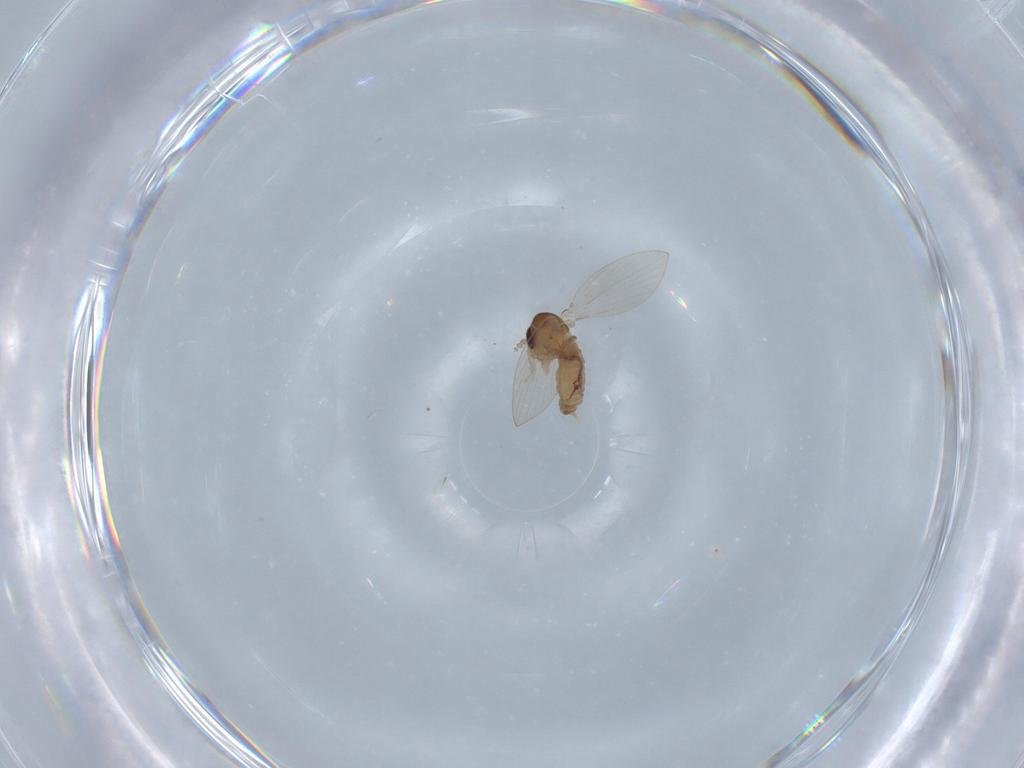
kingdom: Animalia
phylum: Arthropoda
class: Insecta
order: Diptera
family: Psychodidae
